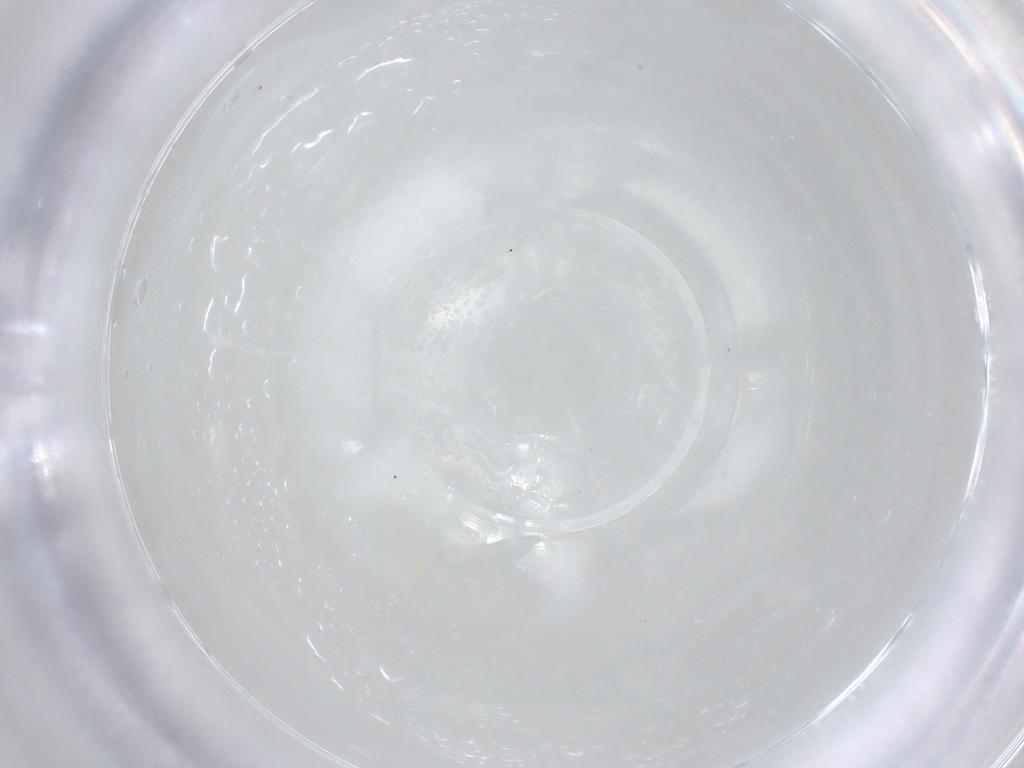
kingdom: Animalia
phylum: Arthropoda
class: Arachnida
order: Trombidiformes
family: Eupodidae
